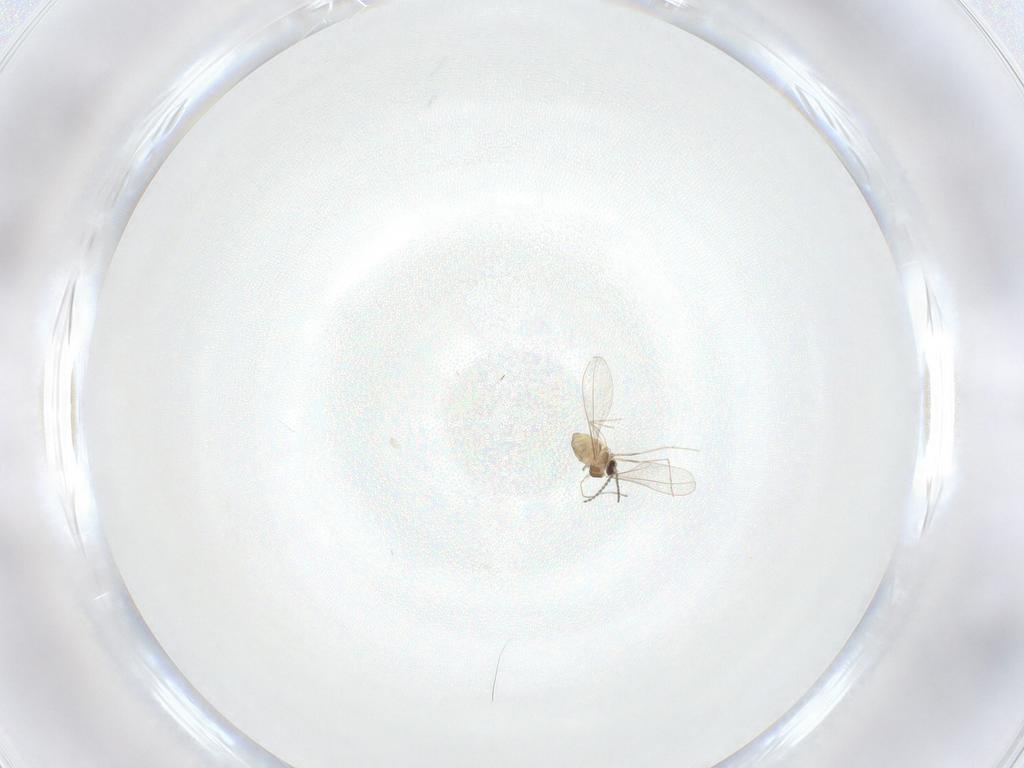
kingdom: Animalia
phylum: Arthropoda
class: Insecta
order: Diptera
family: Cecidomyiidae
